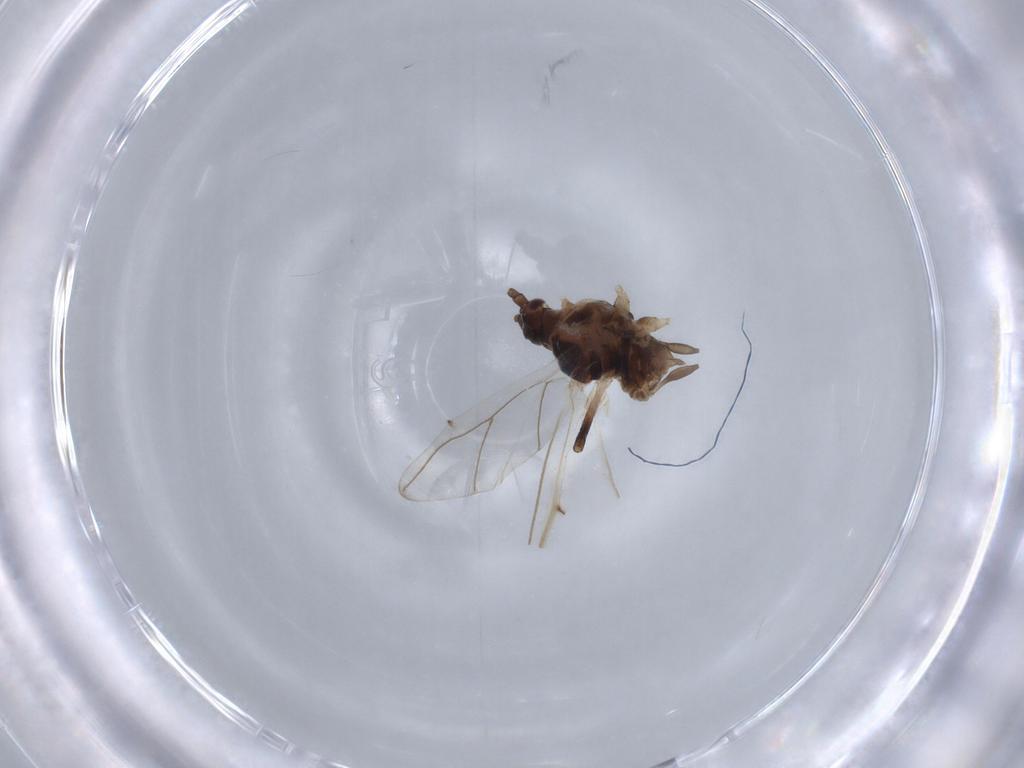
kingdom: Animalia
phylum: Arthropoda
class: Insecta
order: Hemiptera
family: Aphididae
